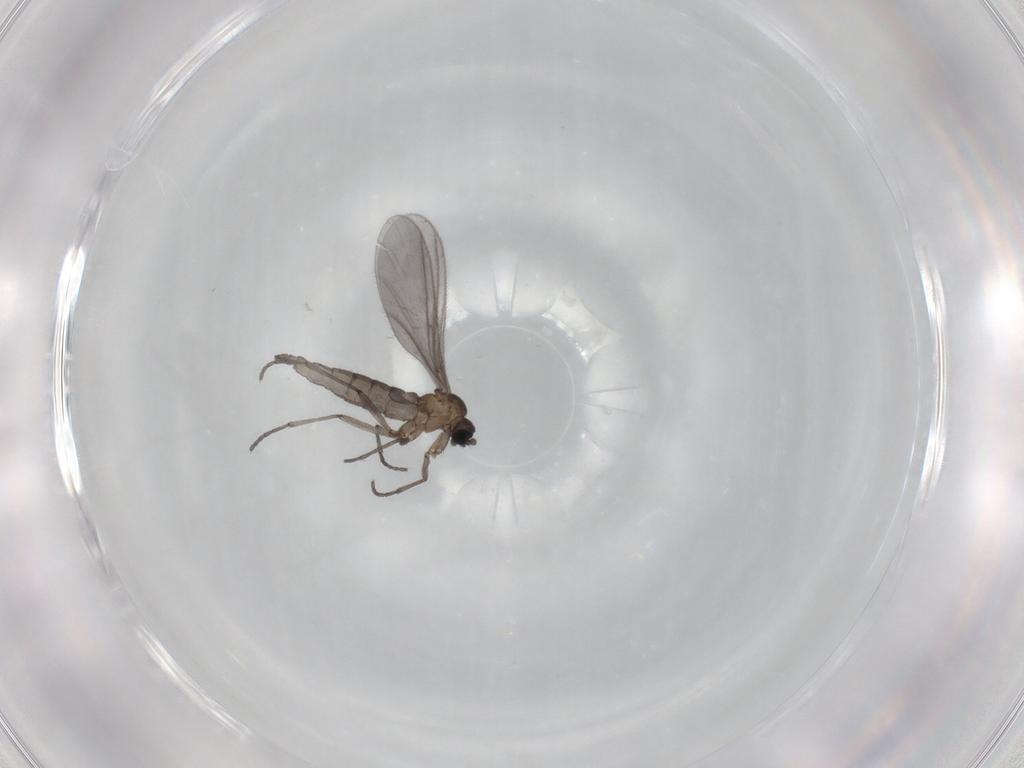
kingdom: Animalia
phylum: Arthropoda
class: Insecta
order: Diptera
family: Sciaridae
